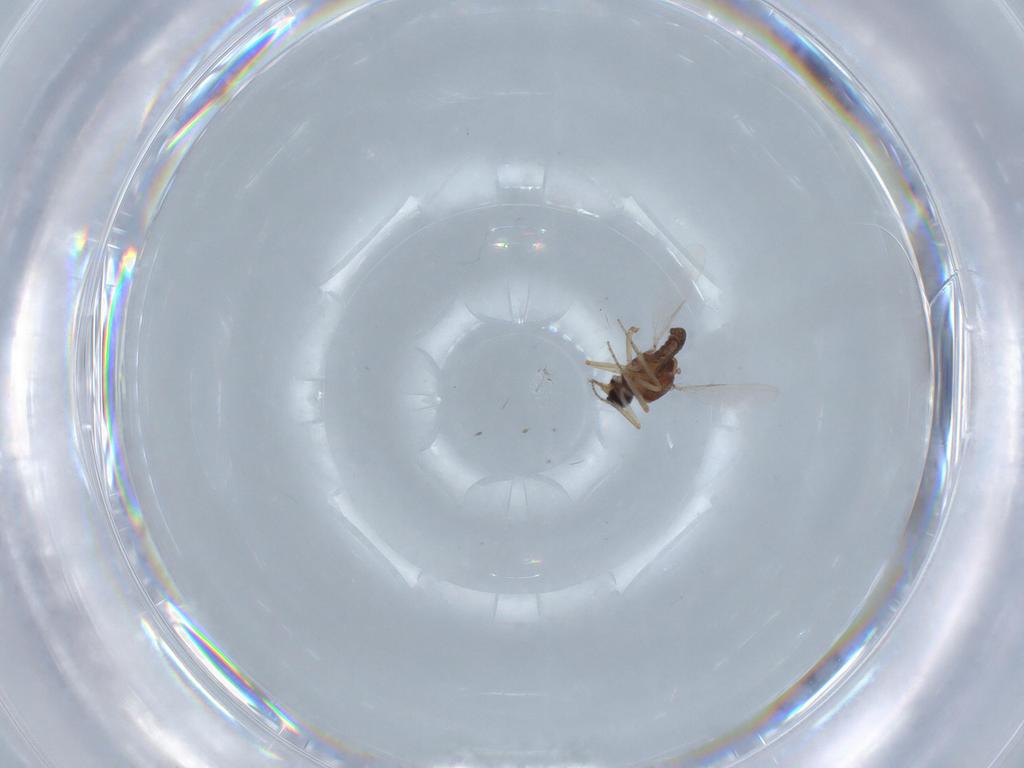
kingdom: Animalia
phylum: Arthropoda
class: Insecta
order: Diptera
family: Ceratopogonidae
